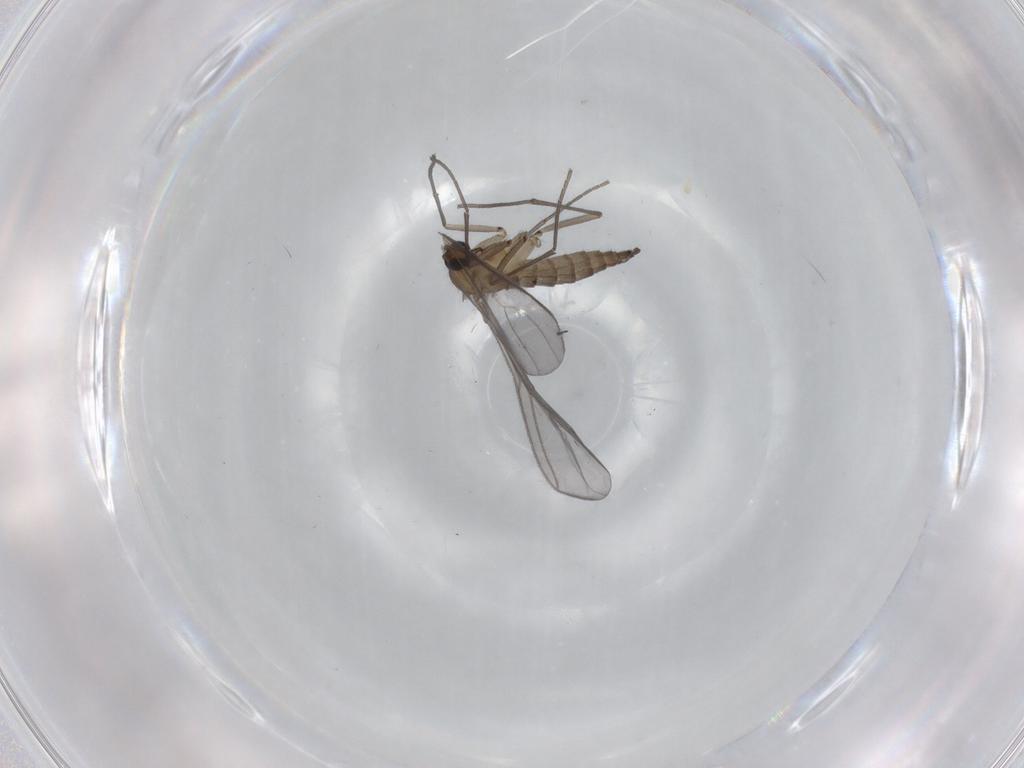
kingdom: Animalia
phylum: Arthropoda
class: Insecta
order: Diptera
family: Sciaridae
